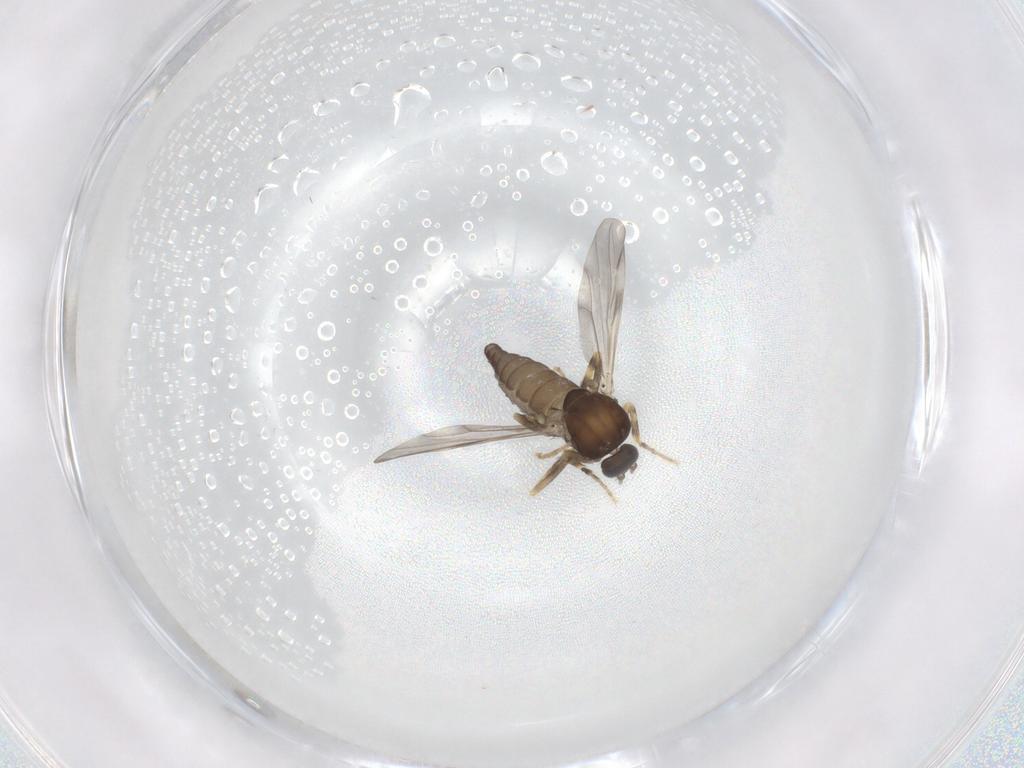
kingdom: Animalia
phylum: Arthropoda
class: Insecta
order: Diptera
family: Ceratopogonidae
